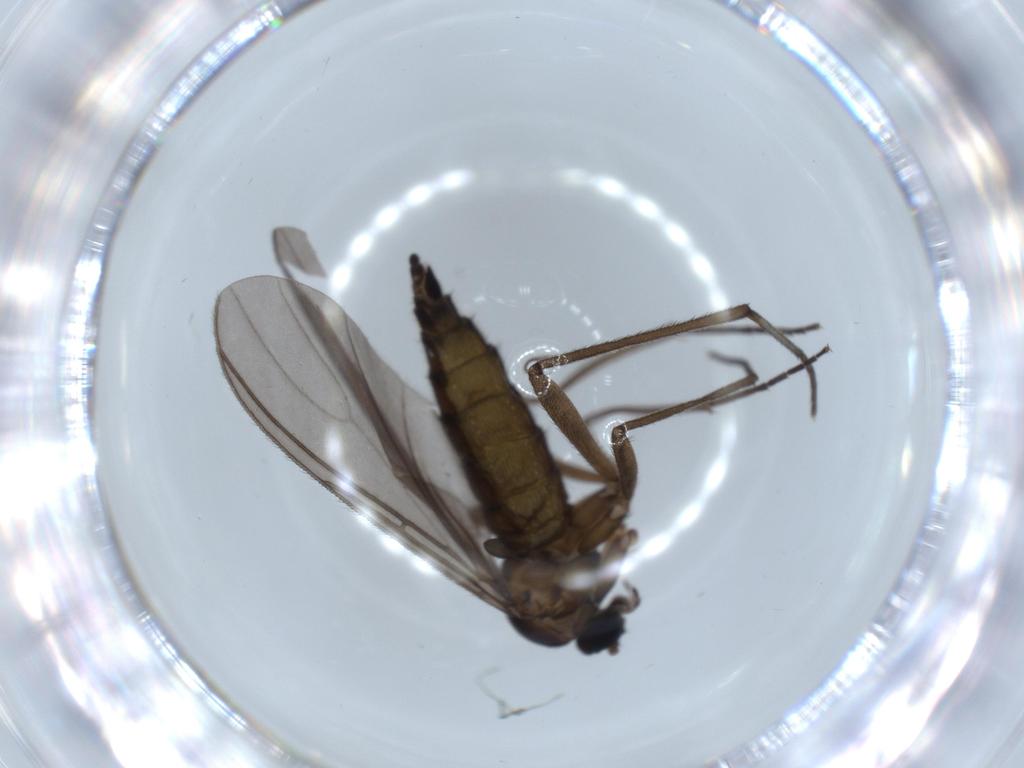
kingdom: Animalia
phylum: Arthropoda
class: Insecta
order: Diptera
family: Sciaridae
